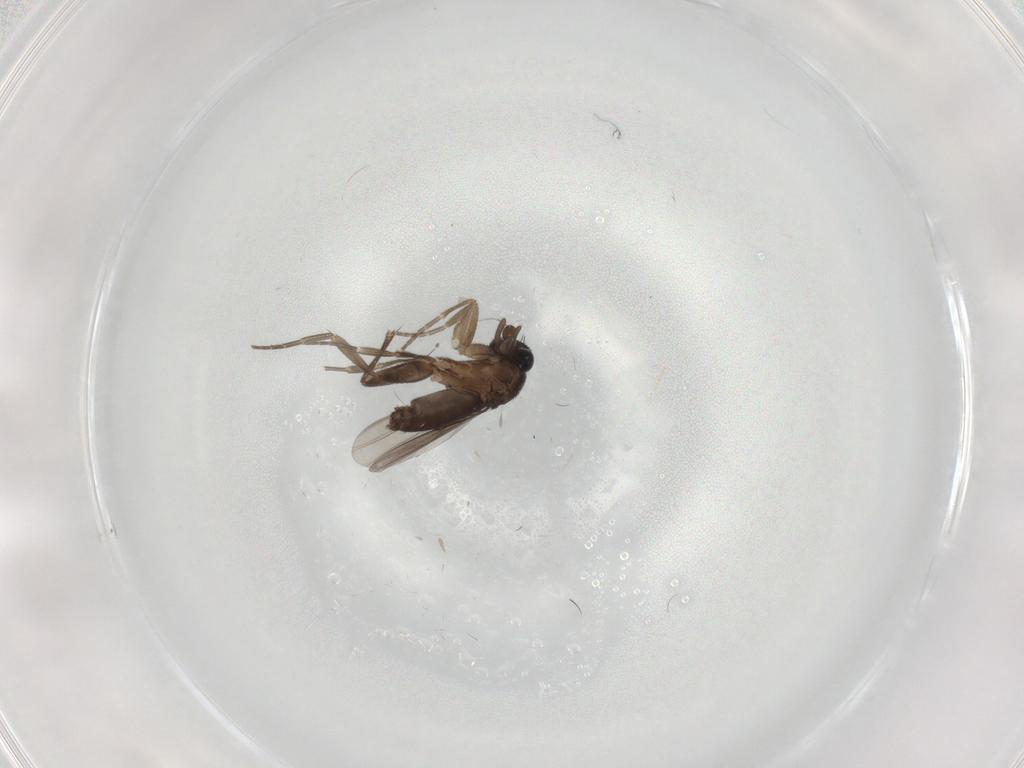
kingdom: Animalia
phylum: Arthropoda
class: Insecta
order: Diptera
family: Phoridae
